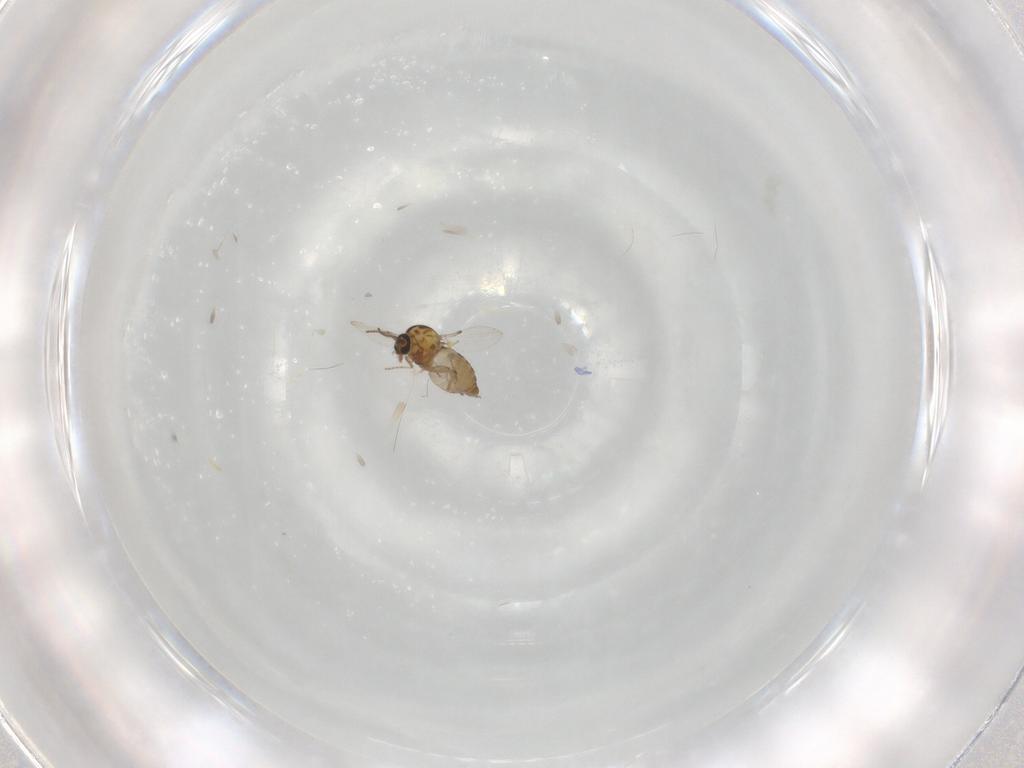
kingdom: Animalia
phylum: Arthropoda
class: Insecta
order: Diptera
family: Ceratopogonidae
